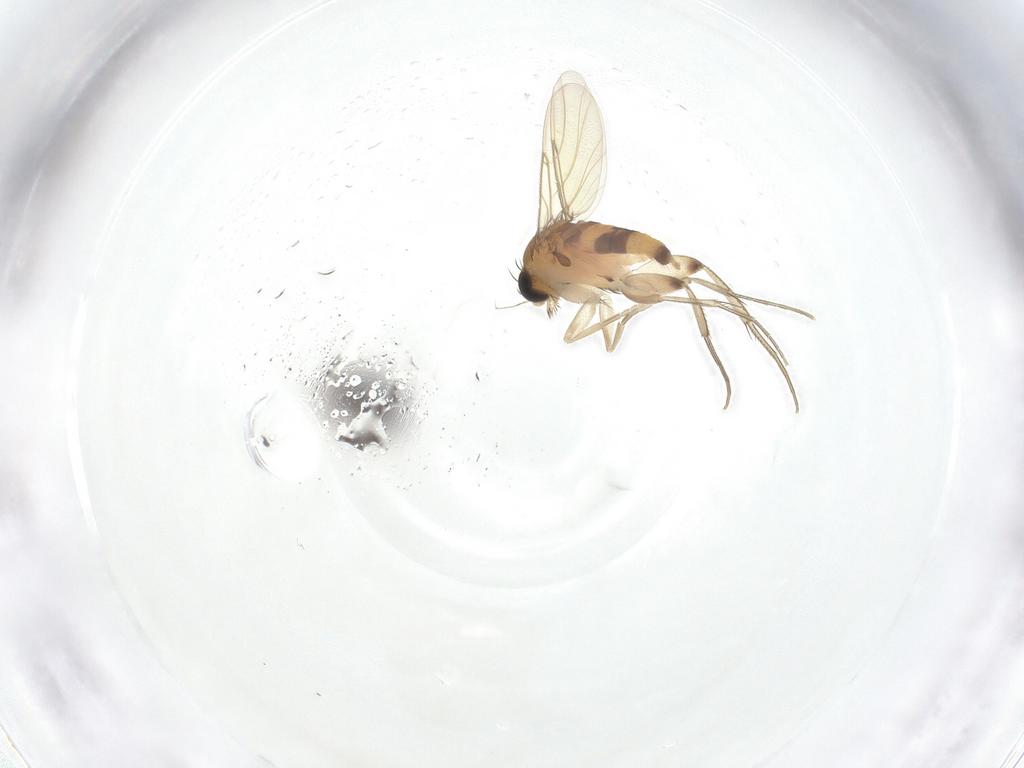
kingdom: Animalia
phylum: Arthropoda
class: Insecta
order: Diptera
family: Phoridae
